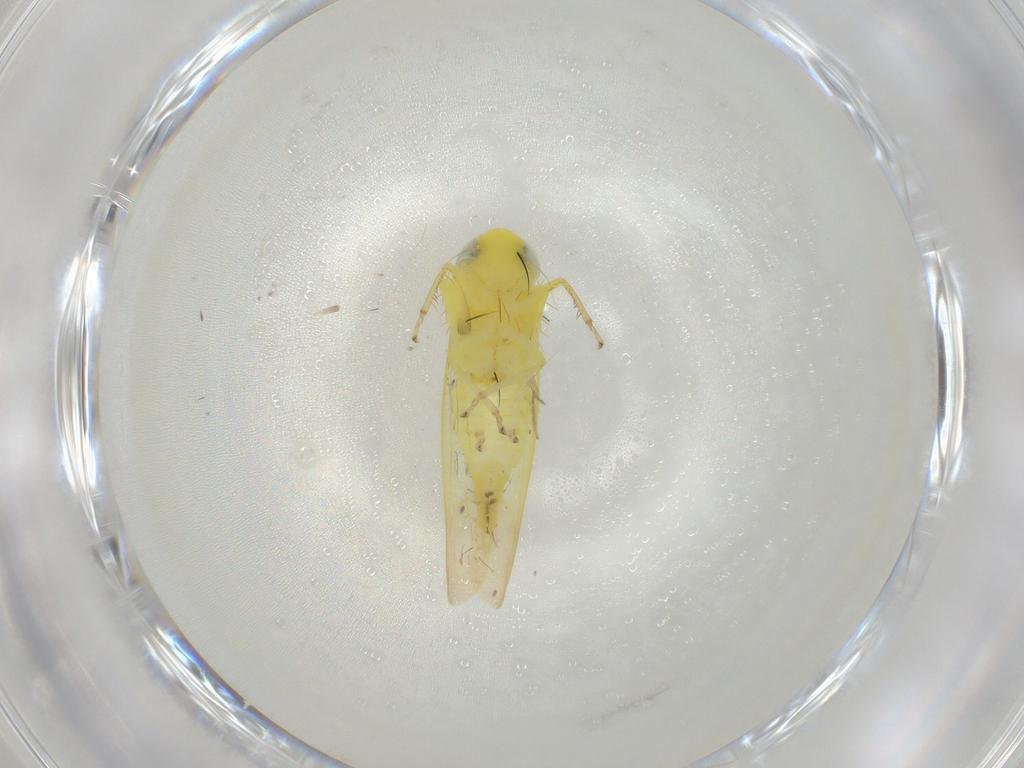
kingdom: Animalia
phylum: Arthropoda
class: Insecta
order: Hemiptera
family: Cicadellidae
